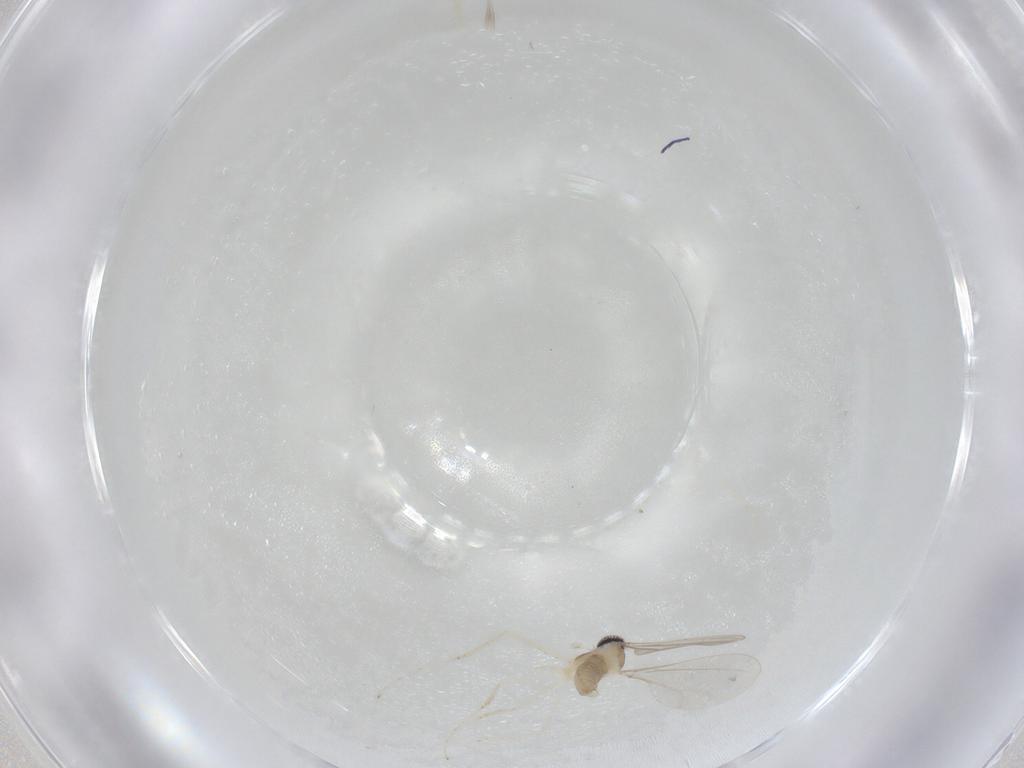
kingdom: Animalia
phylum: Arthropoda
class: Insecta
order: Diptera
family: Cecidomyiidae
